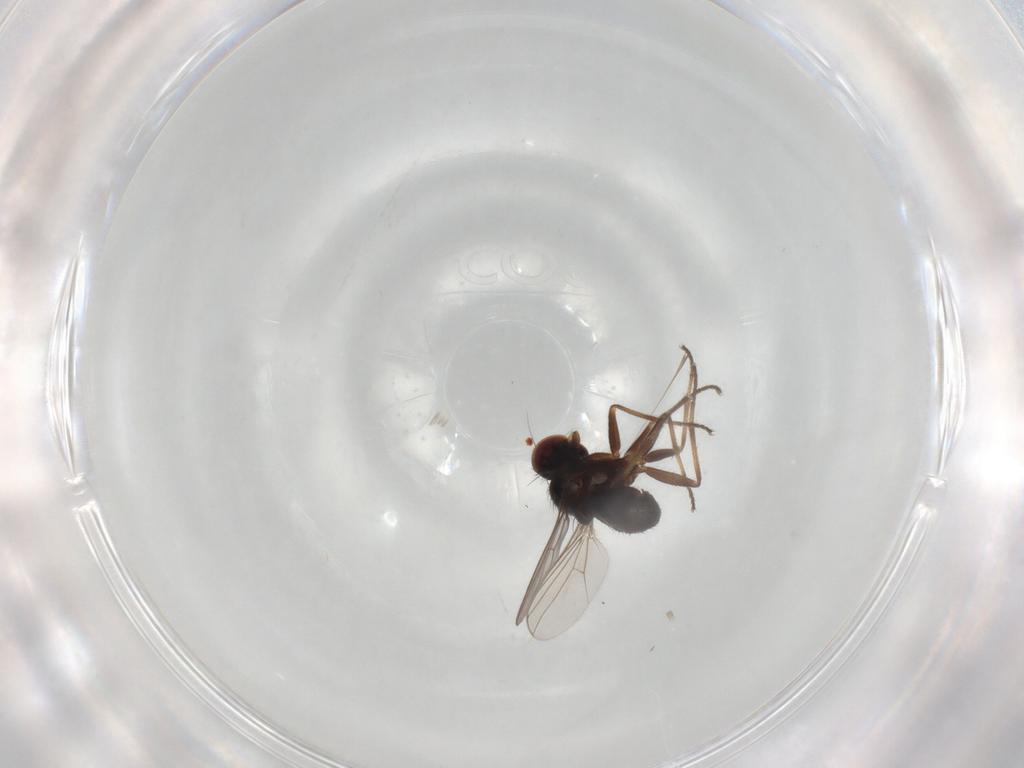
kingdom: Animalia
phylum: Arthropoda
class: Insecta
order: Diptera
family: Dolichopodidae
